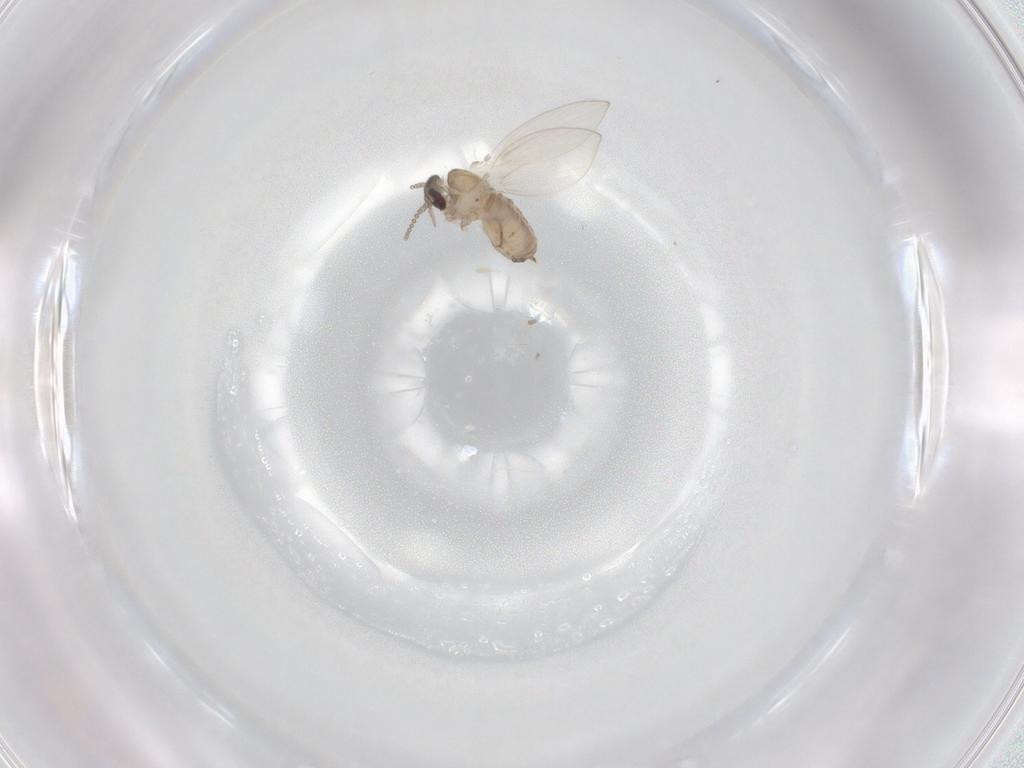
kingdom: Animalia
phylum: Arthropoda
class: Insecta
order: Diptera
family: Psychodidae
